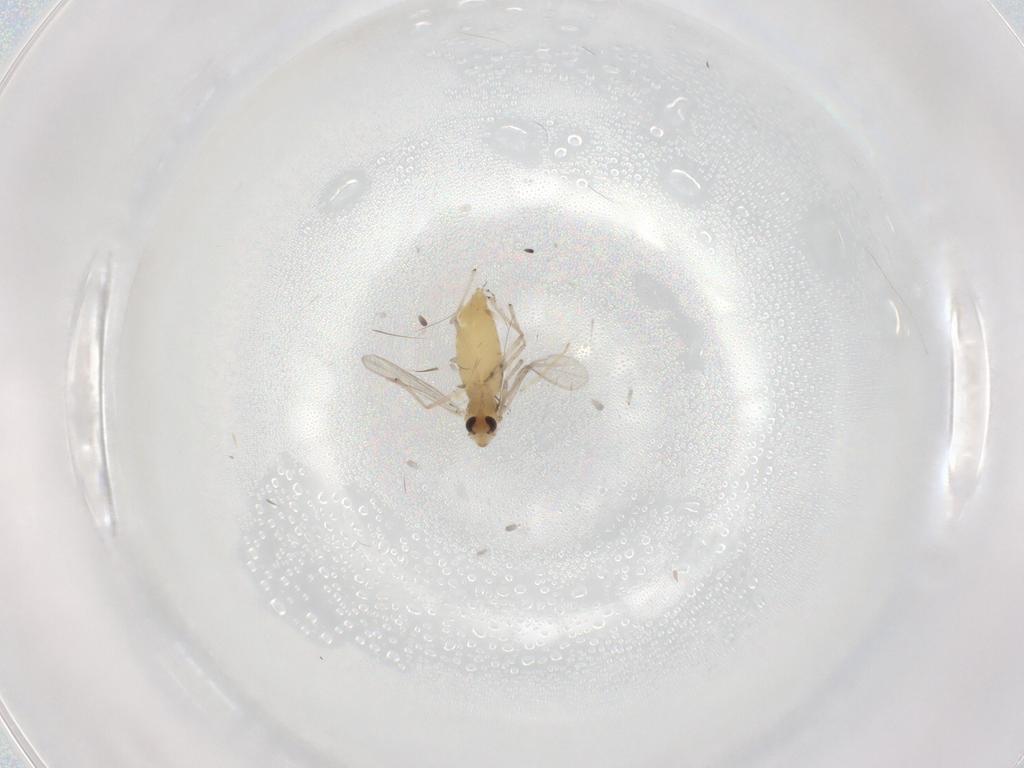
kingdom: Animalia
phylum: Arthropoda
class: Insecta
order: Diptera
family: Chironomidae
